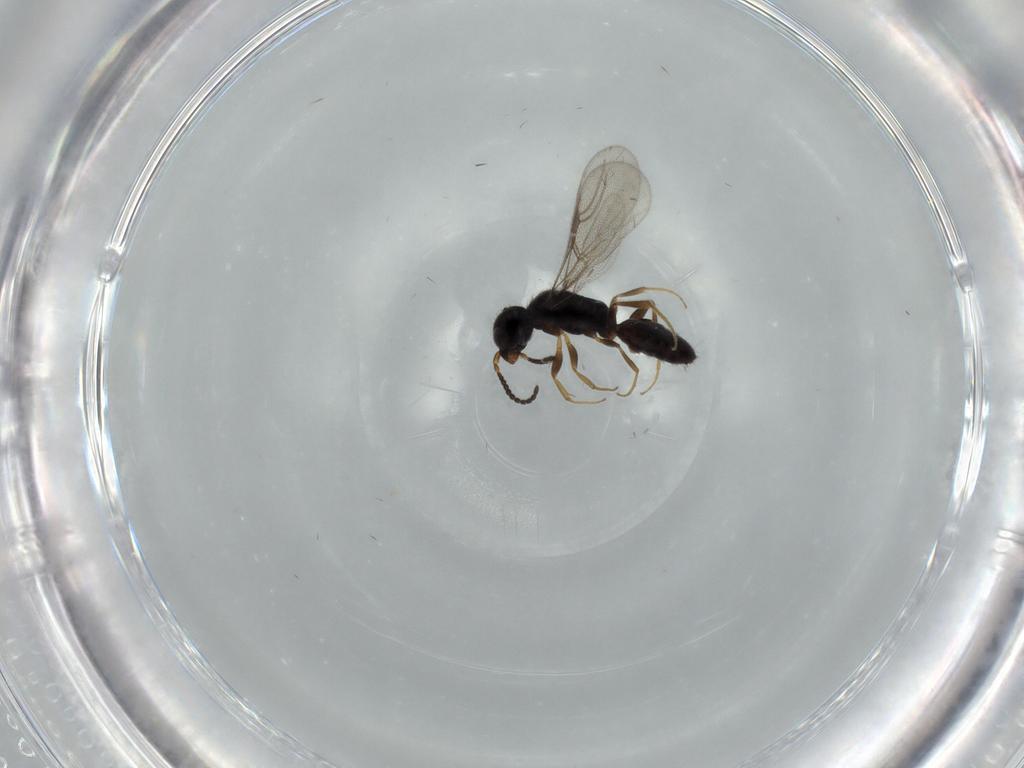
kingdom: Animalia
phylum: Arthropoda
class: Insecta
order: Hymenoptera
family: Bethylidae
